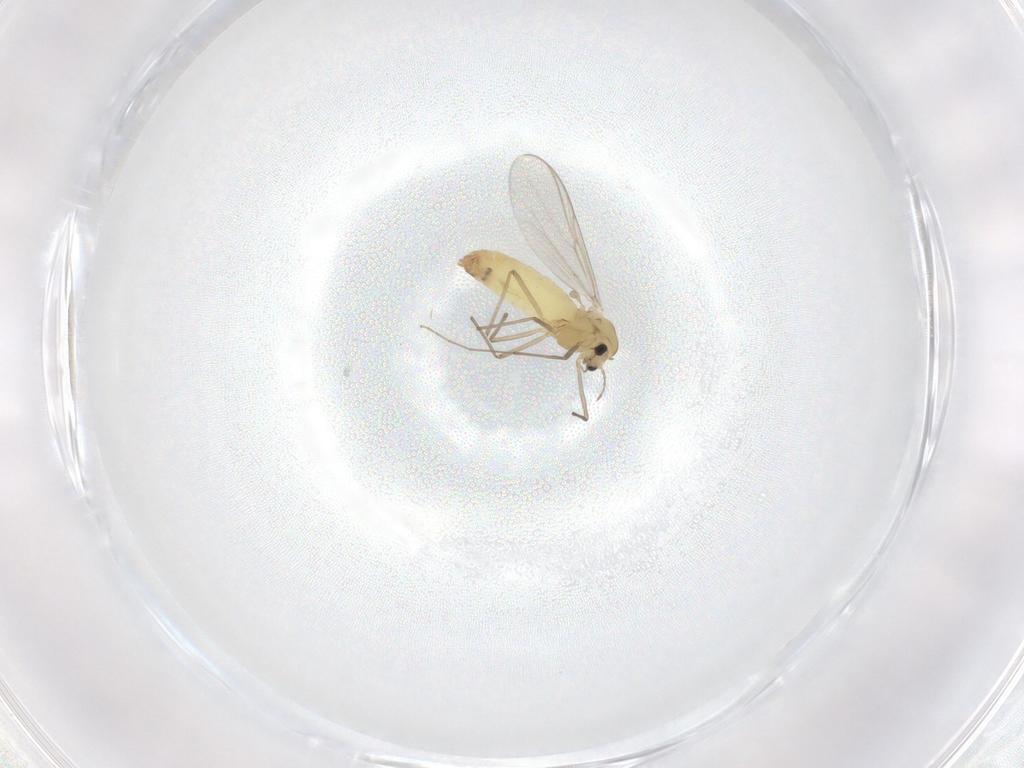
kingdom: Animalia
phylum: Arthropoda
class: Insecta
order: Diptera
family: Chironomidae
